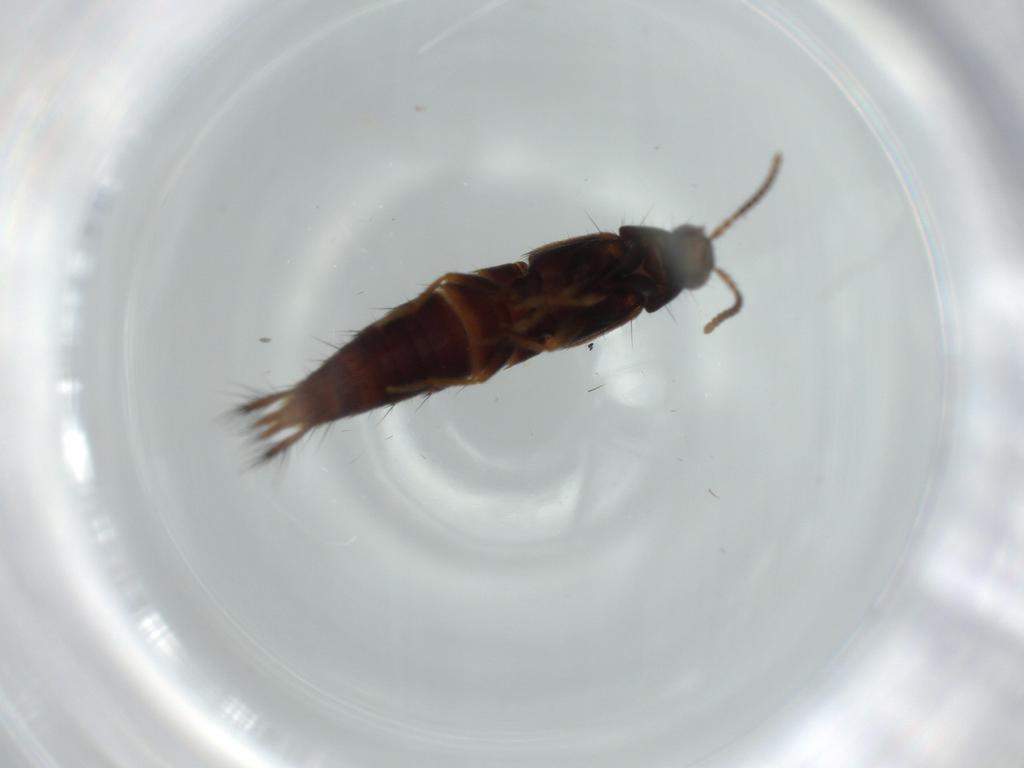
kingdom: Animalia
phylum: Arthropoda
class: Insecta
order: Coleoptera
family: Staphylinidae
